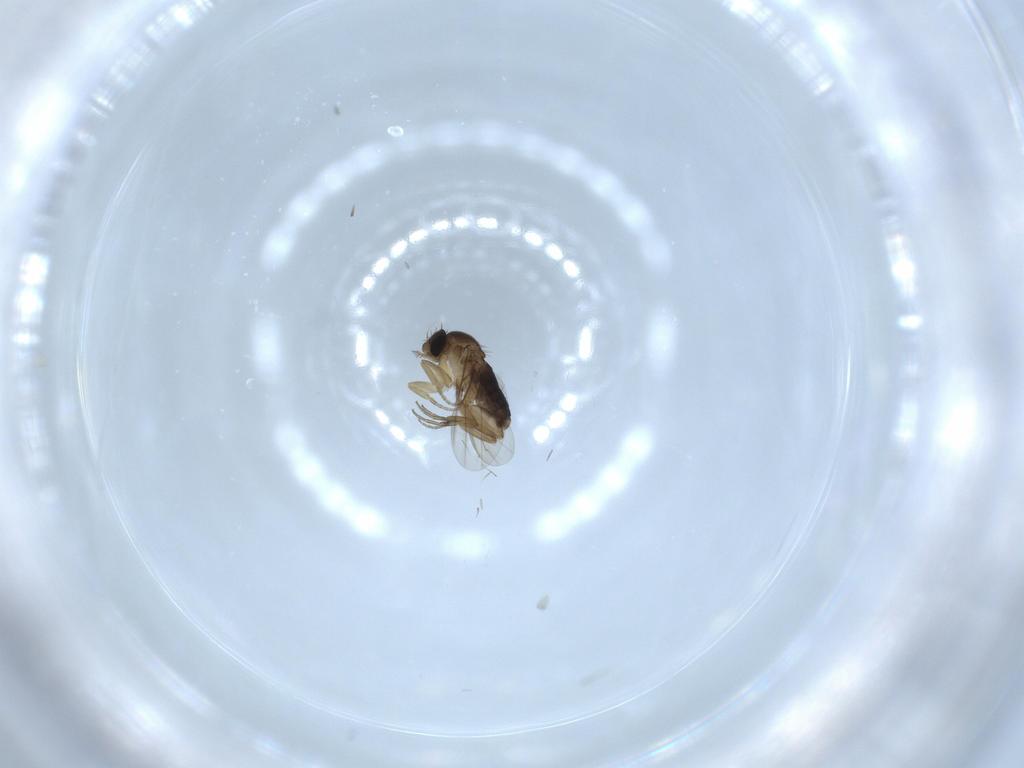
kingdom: Animalia
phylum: Arthropoda
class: Insecta
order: Diptera
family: Drosophilidae
